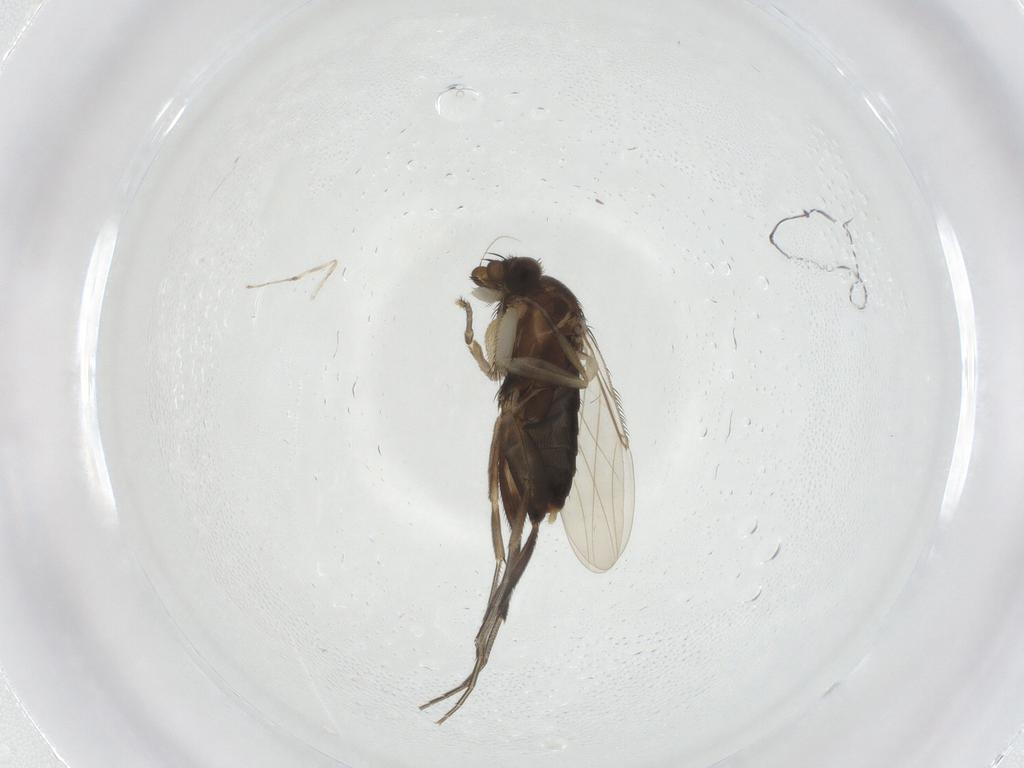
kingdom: Animalia
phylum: Arthropoda
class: Insecta
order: Diptera
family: Phoridae
